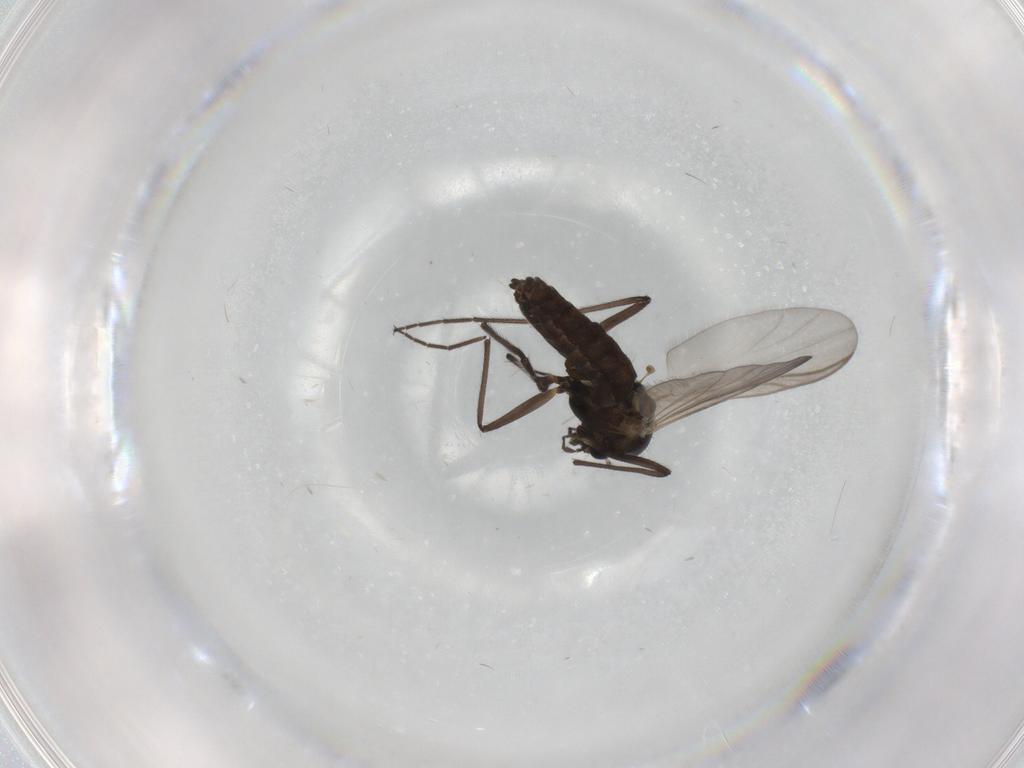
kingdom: Animalia
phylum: Arthropoda
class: Insecta
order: Diptera
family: Chironomidae
